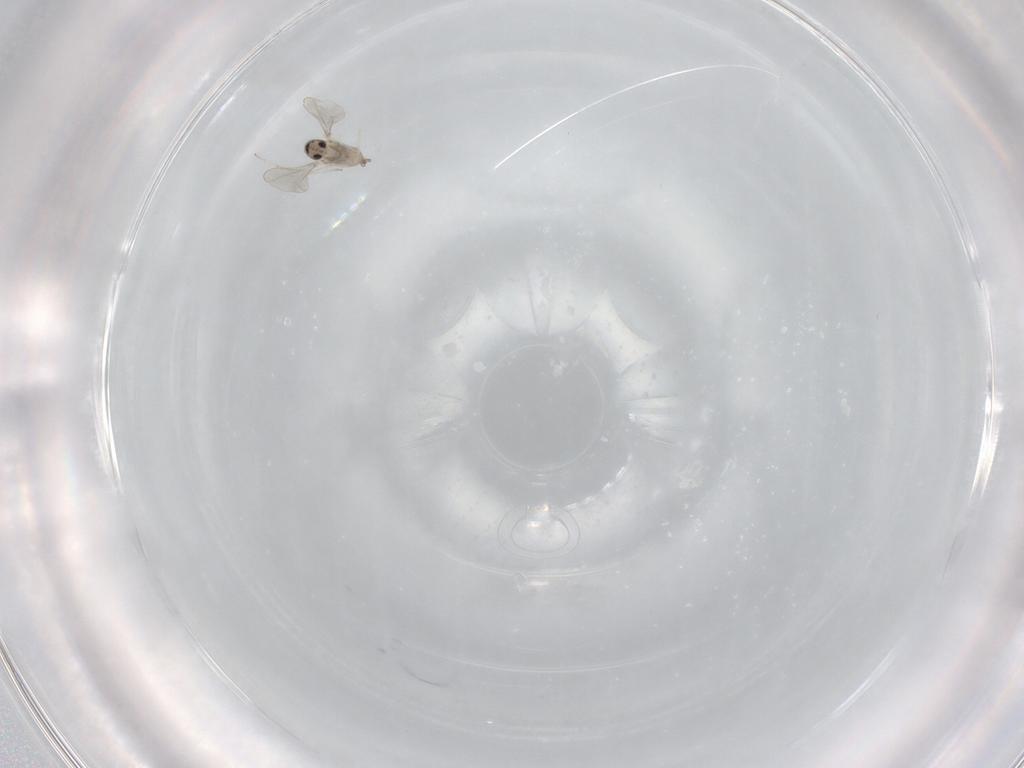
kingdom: Animalia
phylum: Arthropoda
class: Insecta
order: Diptera
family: Cecidomyiidae
